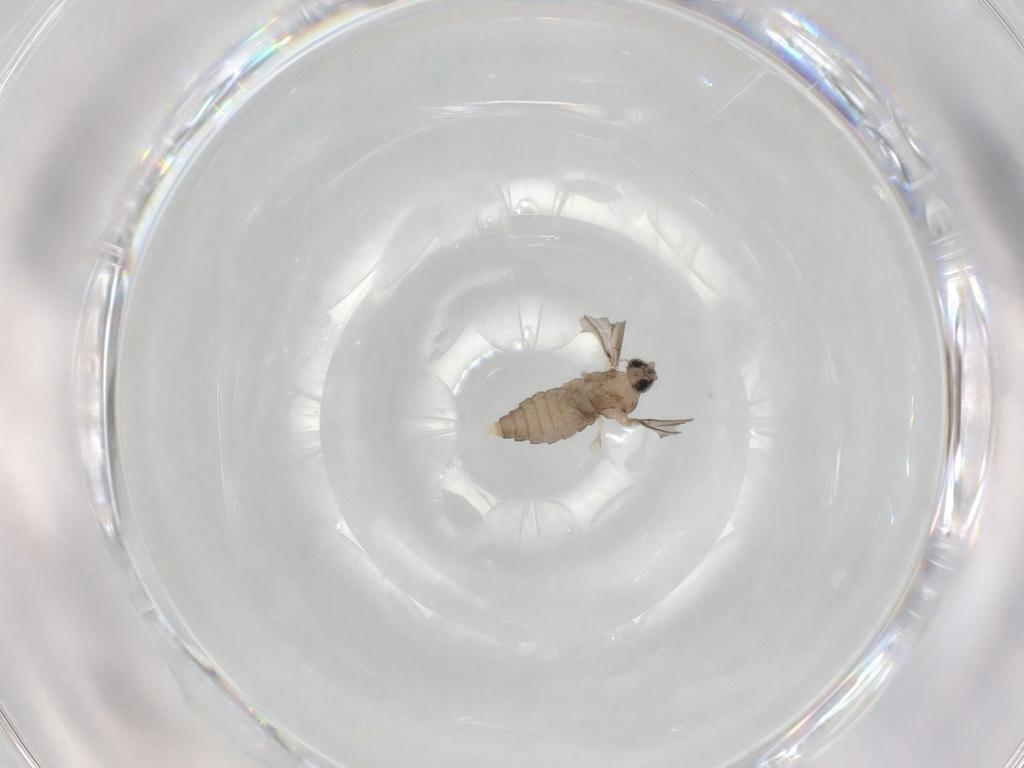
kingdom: Animalia
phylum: Arthropoda
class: Insecta
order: Diptera
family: Cecidomyiidae
